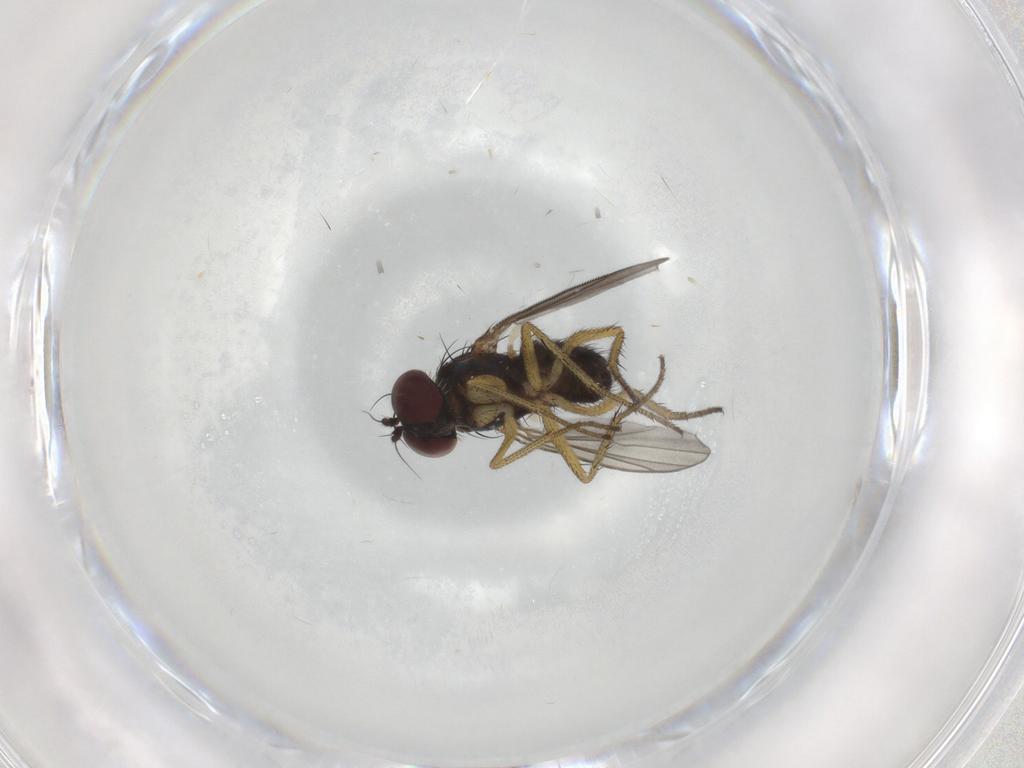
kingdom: Animalia
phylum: Arthropoda
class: Insecta
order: Diptera
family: Dolichopodidae
